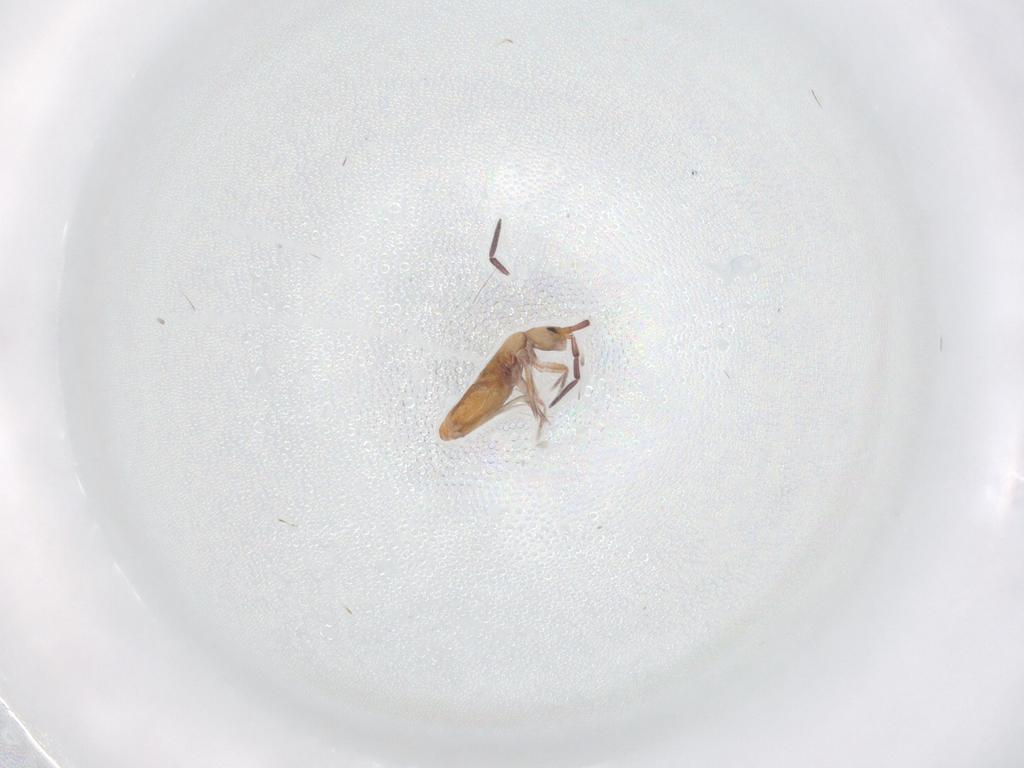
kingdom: Animalia
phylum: Arthropoda
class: Collembola
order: Entomobryomorpha
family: Entomobryidae
